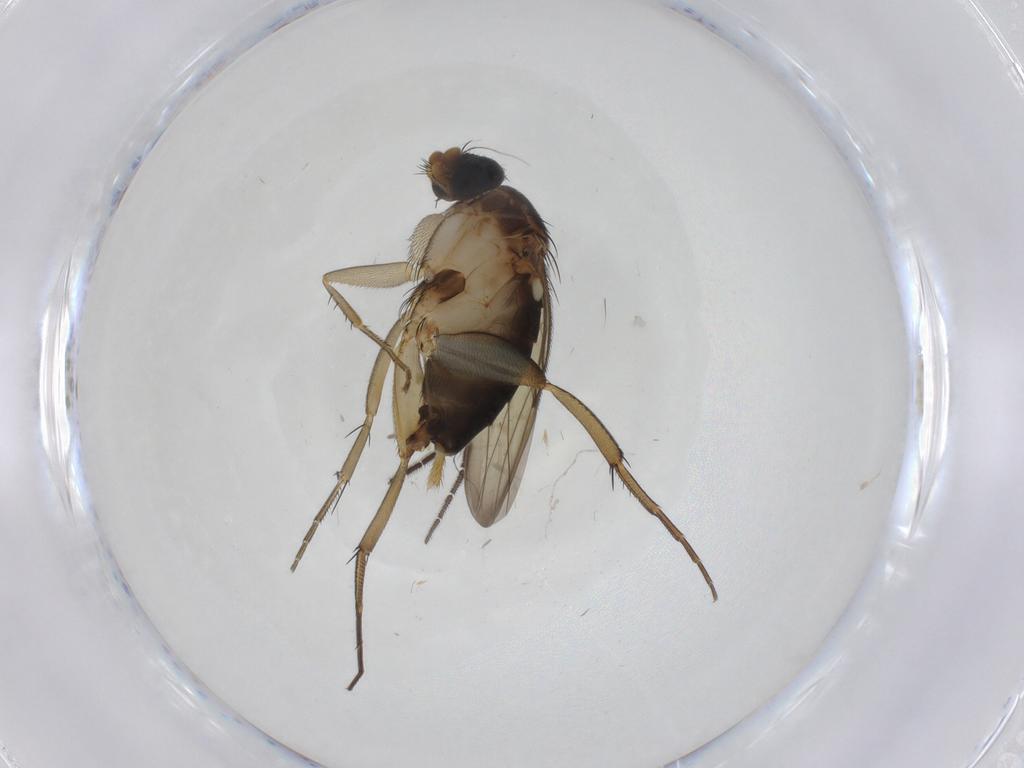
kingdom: Animalia
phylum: Arthropoda
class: Insecta
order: Diptera
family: Phoridae
